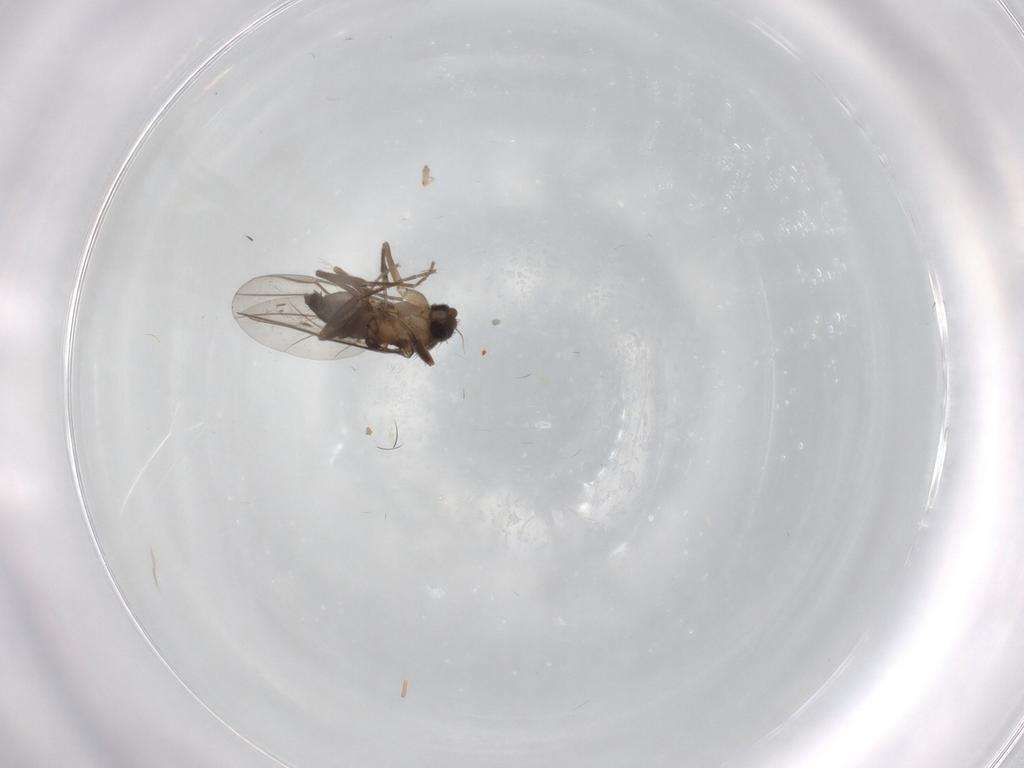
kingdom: Animalia
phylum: Arthropoda
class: Insecta
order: Diptera
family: Phoridae
